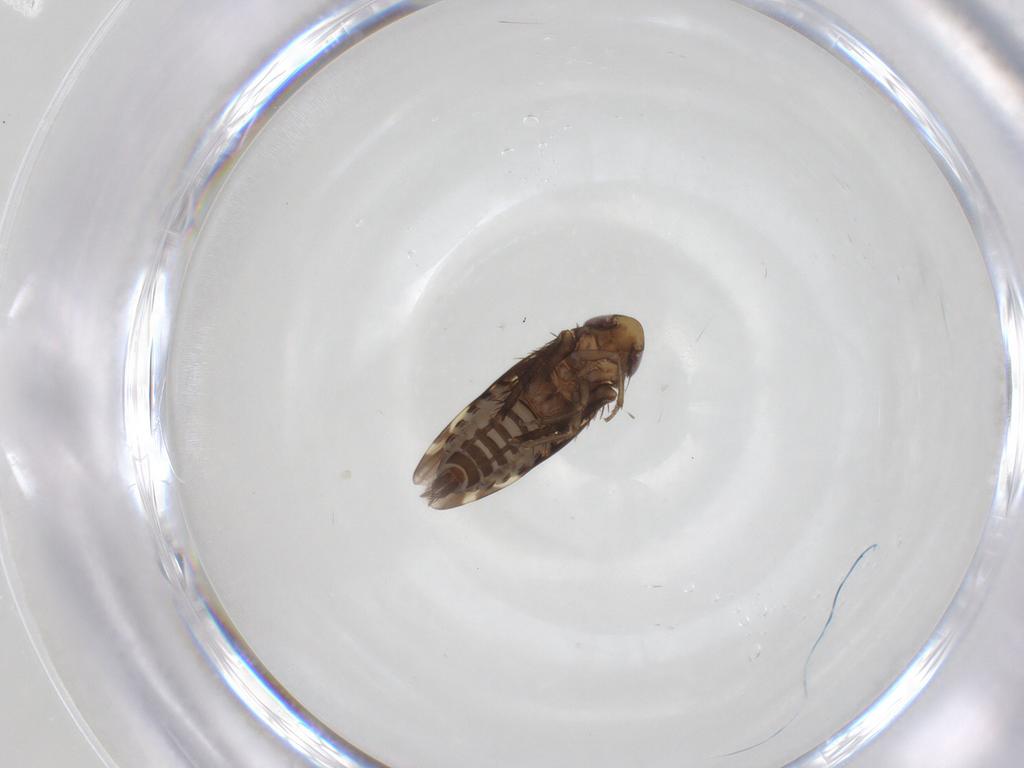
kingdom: Animalia
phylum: Arthropoda
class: Insecta
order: Hemiptera
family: Cicadellidae
